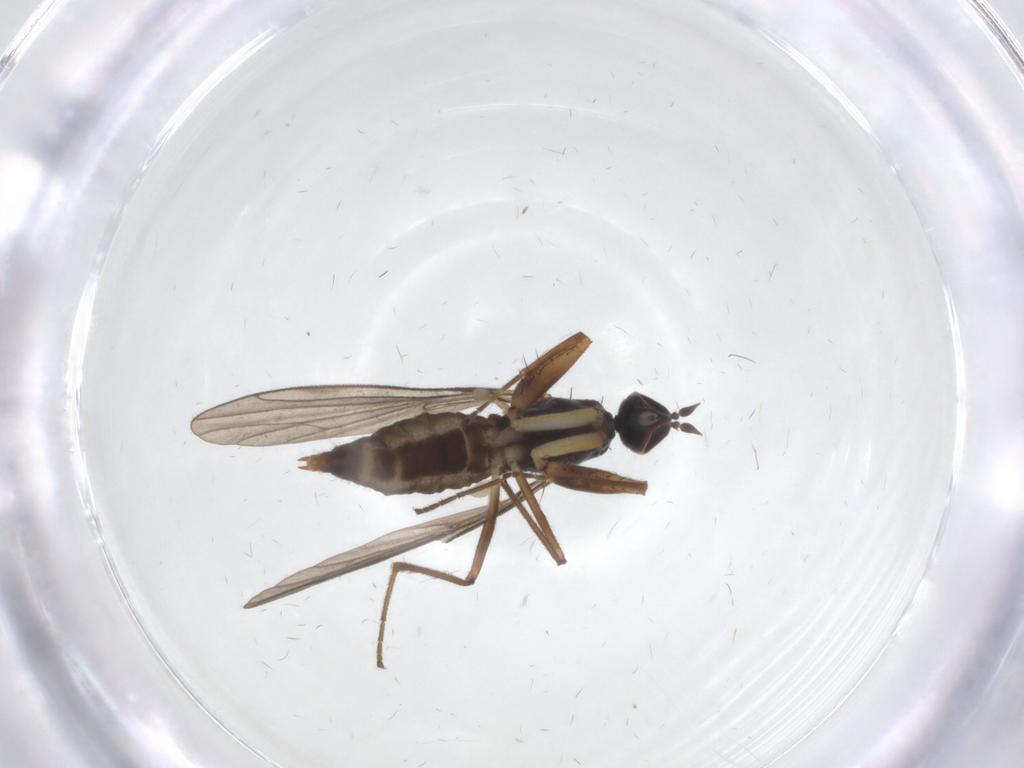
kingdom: Animalia
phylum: Arthropoda
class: Insecta
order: Diptera
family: Empididae
